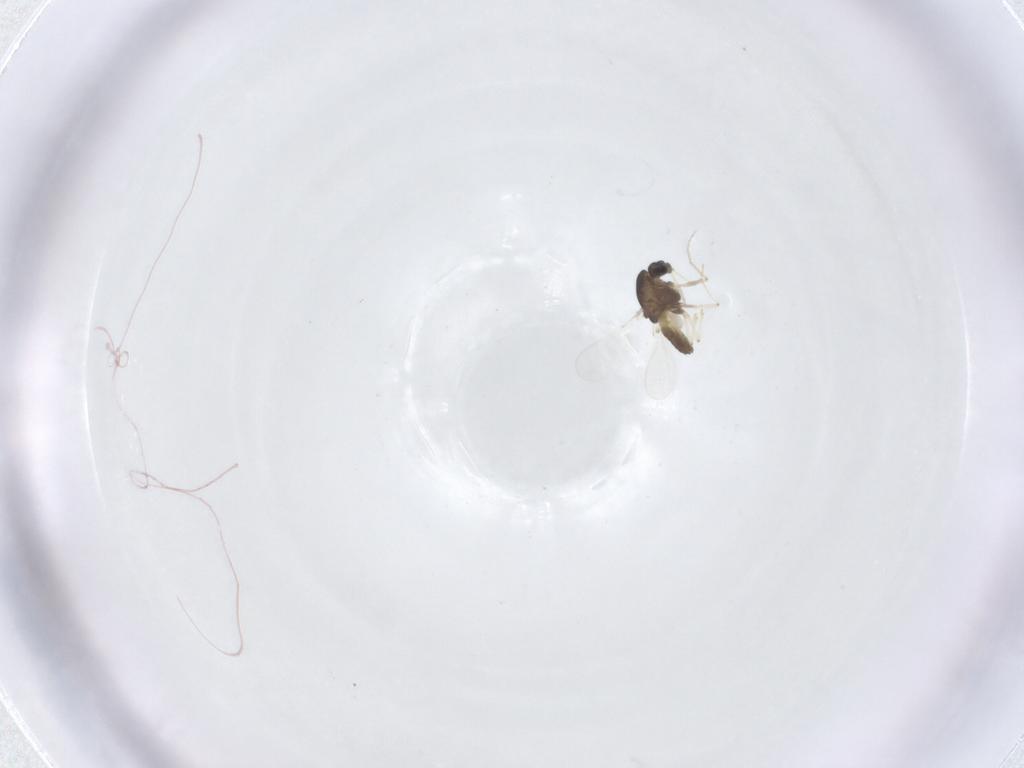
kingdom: Animalia
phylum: Arthropoda
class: Insecta
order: Diptera
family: Chironomidae
